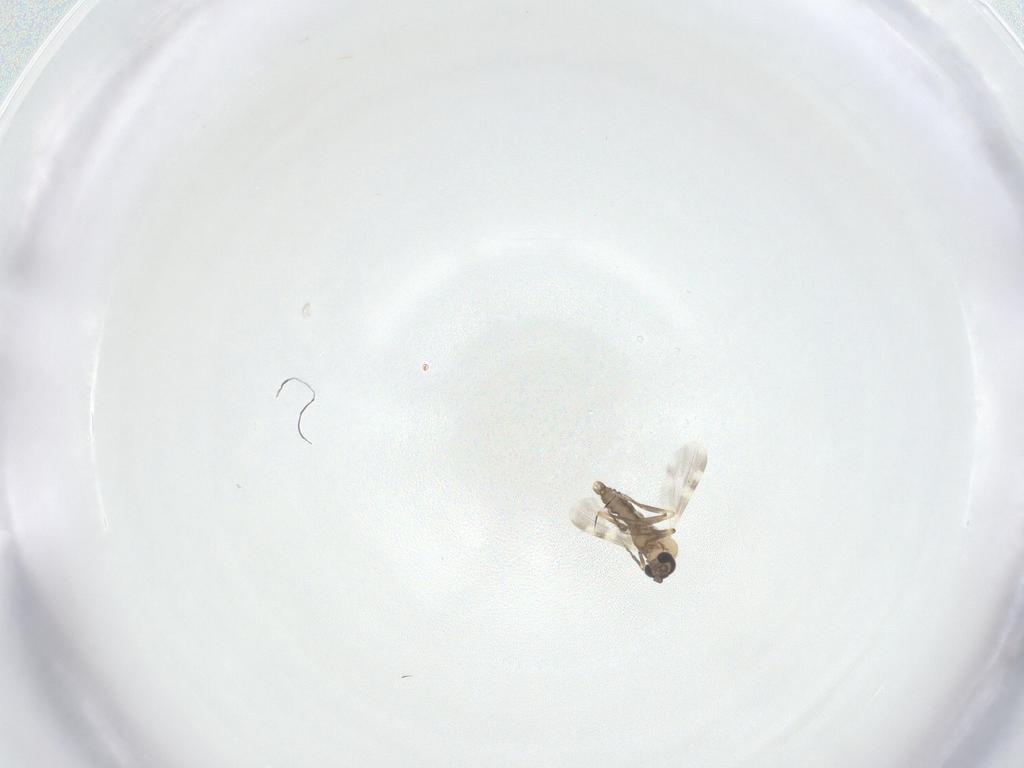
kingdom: Animalia
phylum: Arthropoda
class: Insecta
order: Diptera
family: Ceratopogonidae
